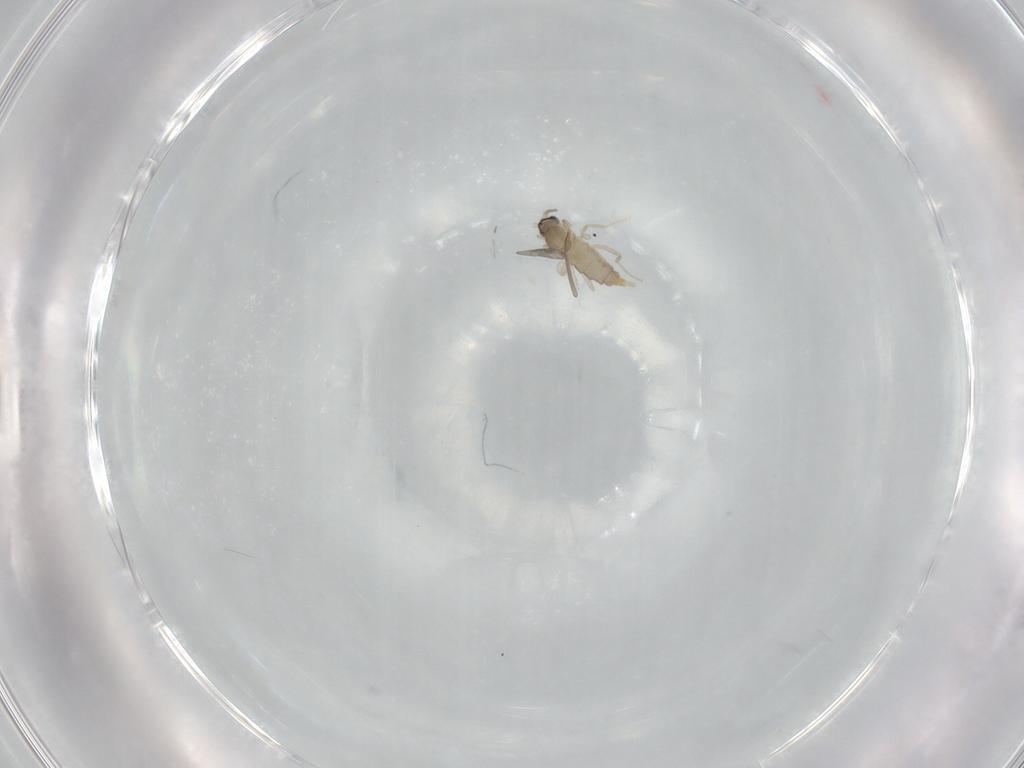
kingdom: Animalia
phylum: Arthropoda
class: Insecta
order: Diptera
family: Cecidomyiidae
